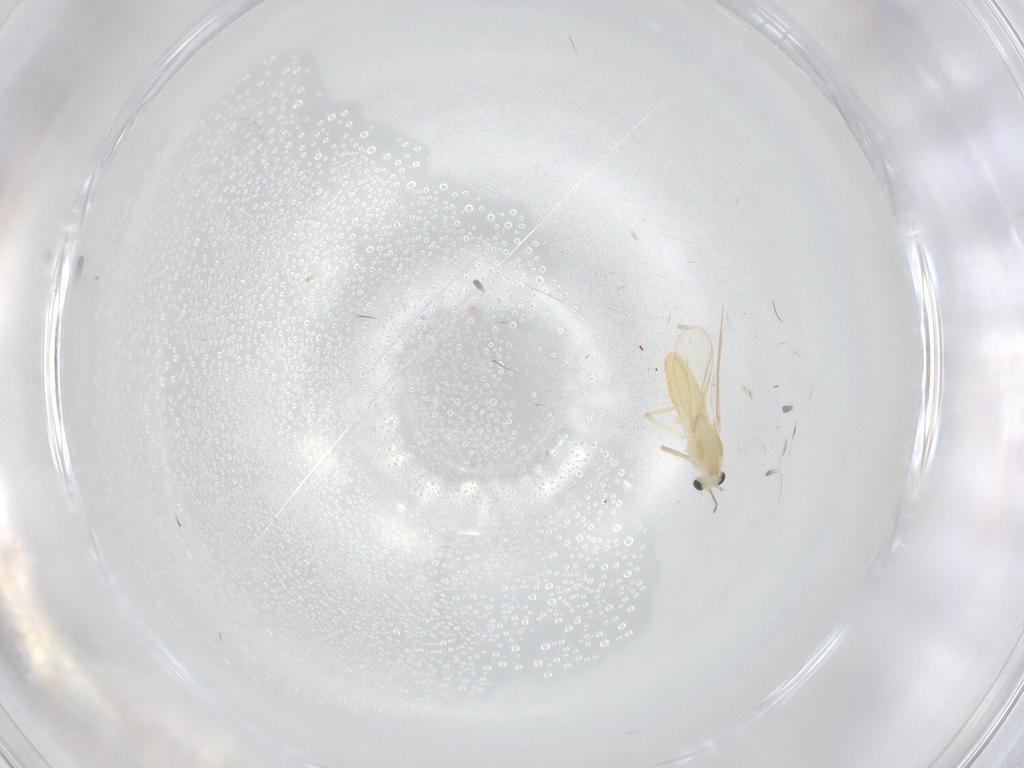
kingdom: Animalia
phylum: Arthropoda
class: Insecta
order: Diptera
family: Chironomidae
